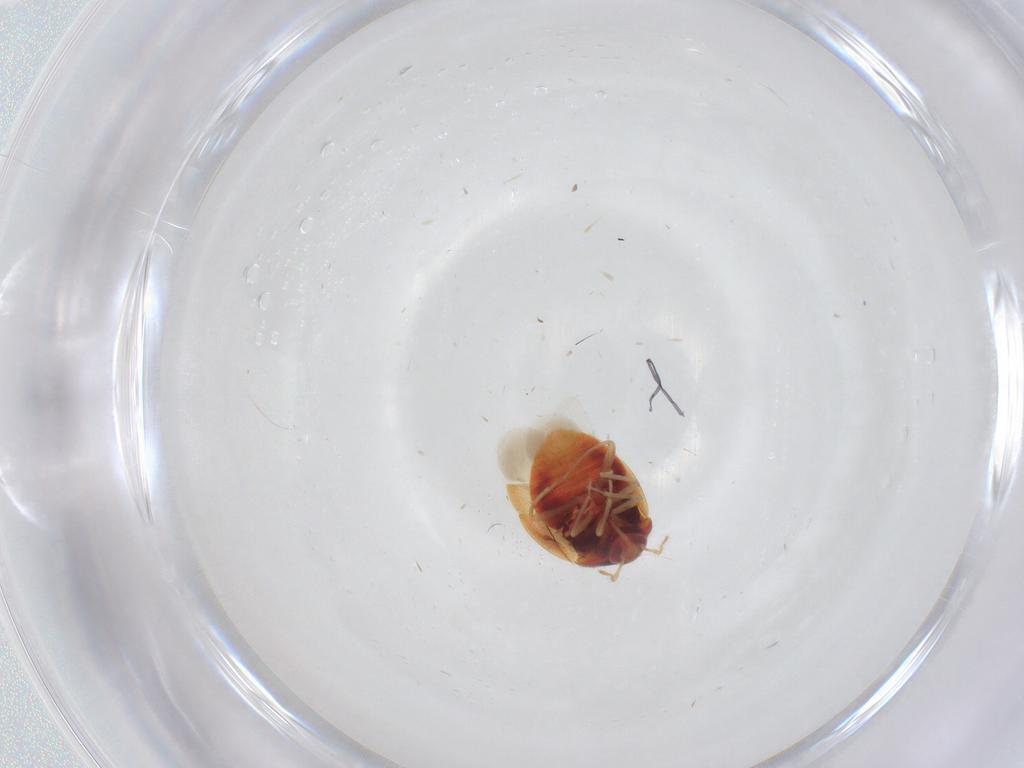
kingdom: Animalia
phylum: Arthropoda
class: Insecta
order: Hemiptera
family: Anthocoridae
